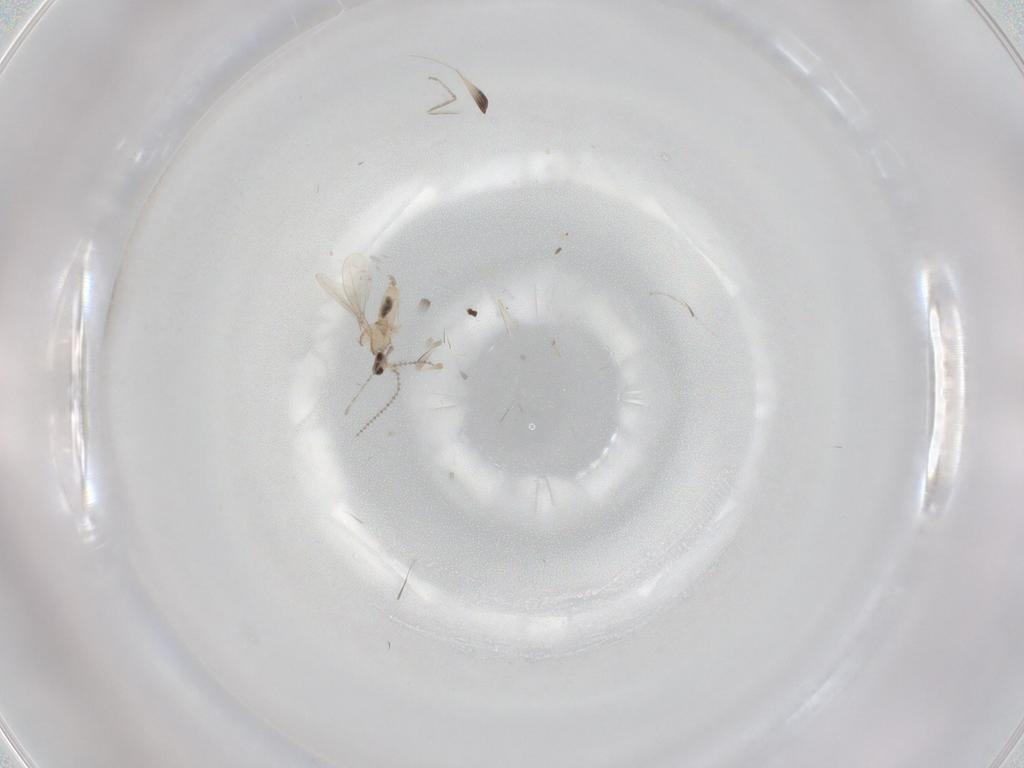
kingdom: Animalia
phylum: Arthropoda
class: Insecta
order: Diptera
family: Cecidomyiidae
